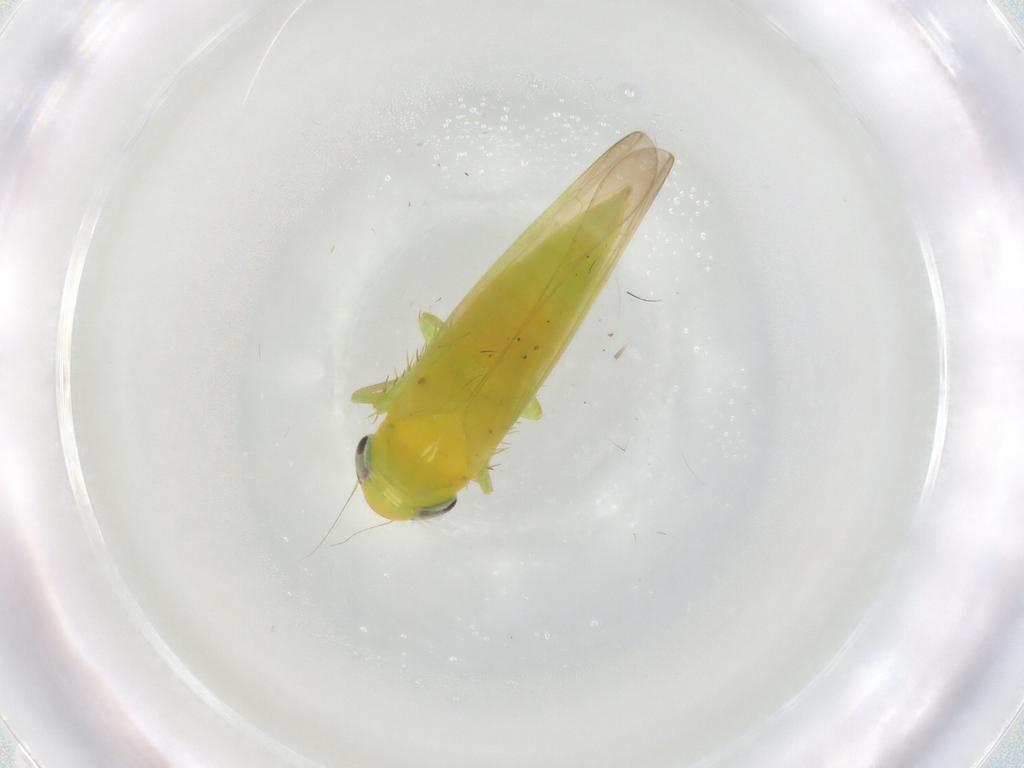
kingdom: Animalia
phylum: Arthropoda
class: Insecta
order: Hemiptera
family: Cicadellidae
